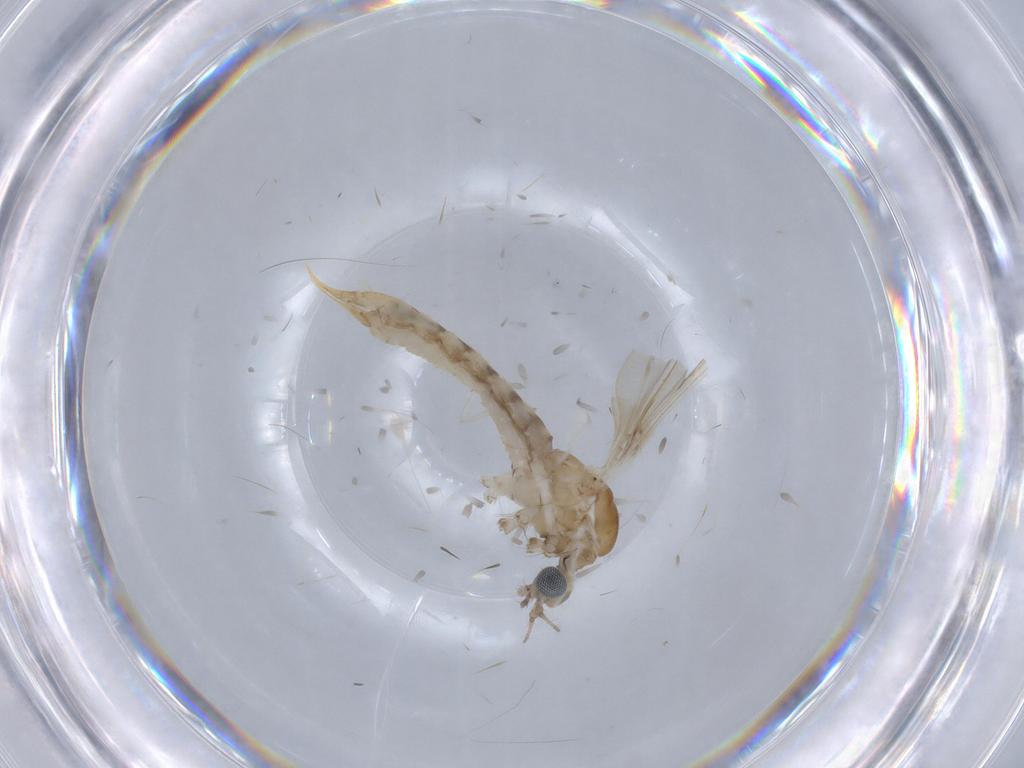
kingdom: Animalia
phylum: Arthropoda
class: Insecta
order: Diptera
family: Limoniidae
